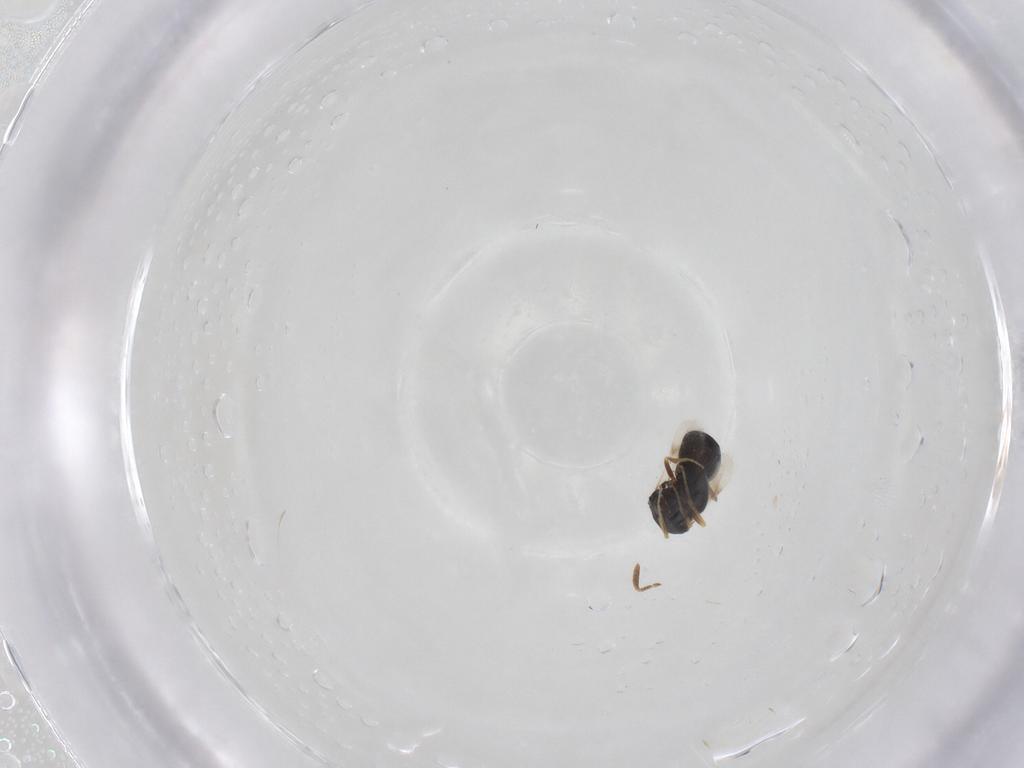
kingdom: Animalia
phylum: Arthropoda
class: Insecta
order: Hymenoptera
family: Scelionidae
